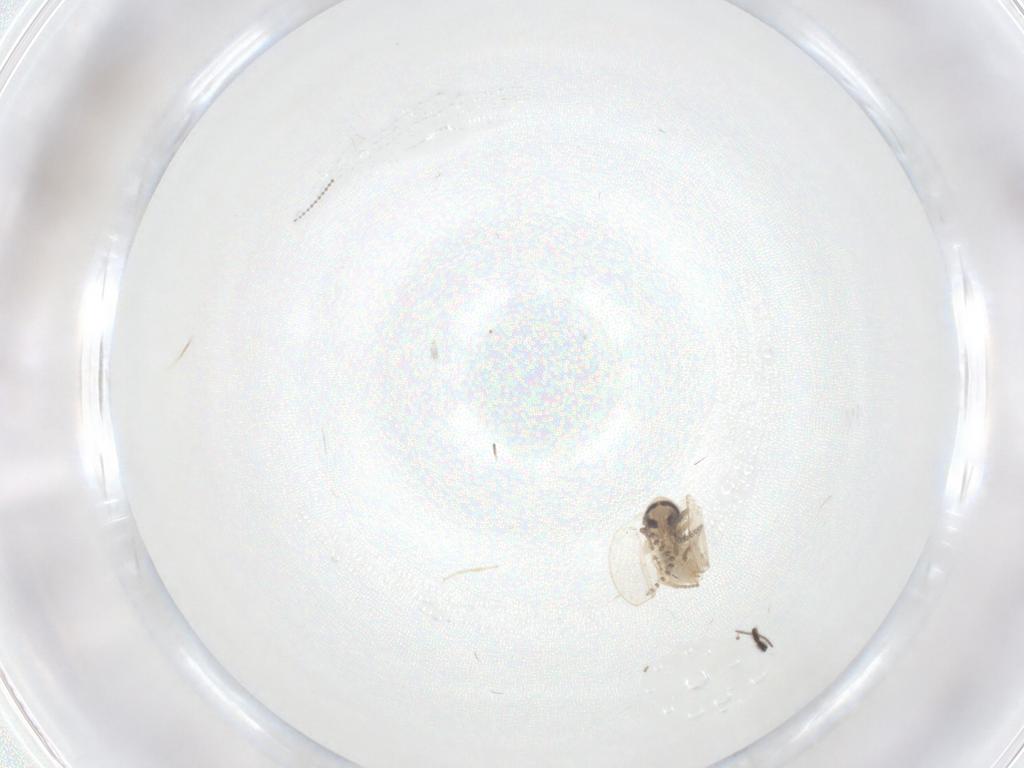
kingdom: Animalia
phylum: Arthropoda
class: Insecta
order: Diptera
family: Psychodidae
